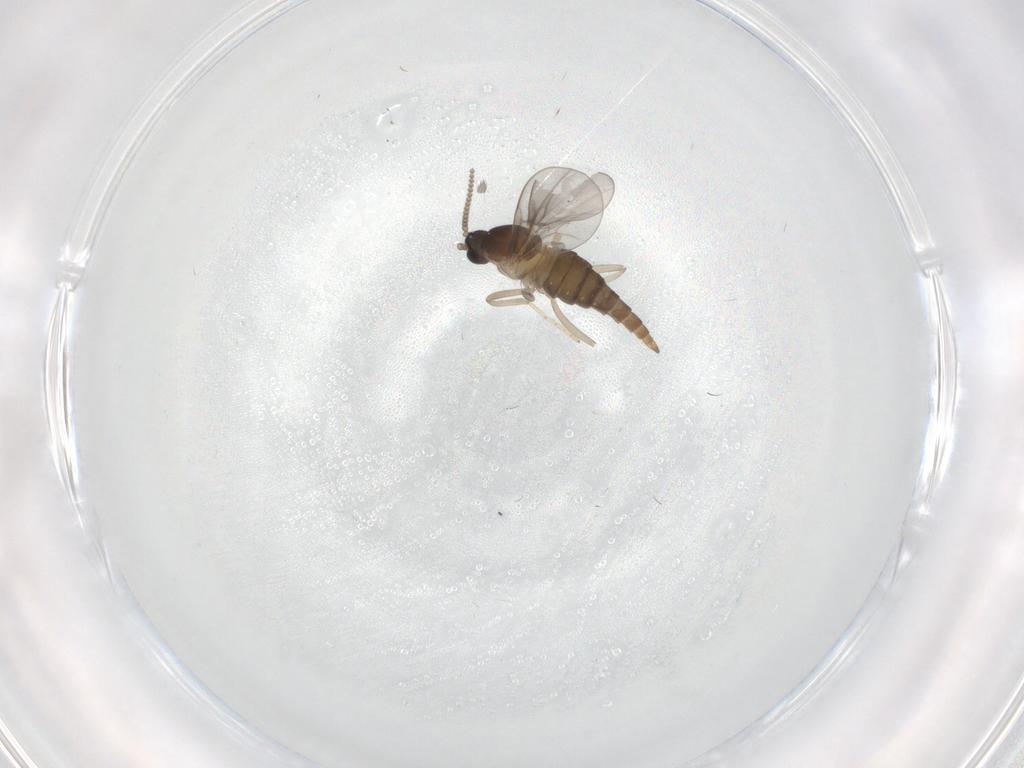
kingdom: Animalia
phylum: Arthropoda
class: Insecta
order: Diptera
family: Cecidomyiidae
